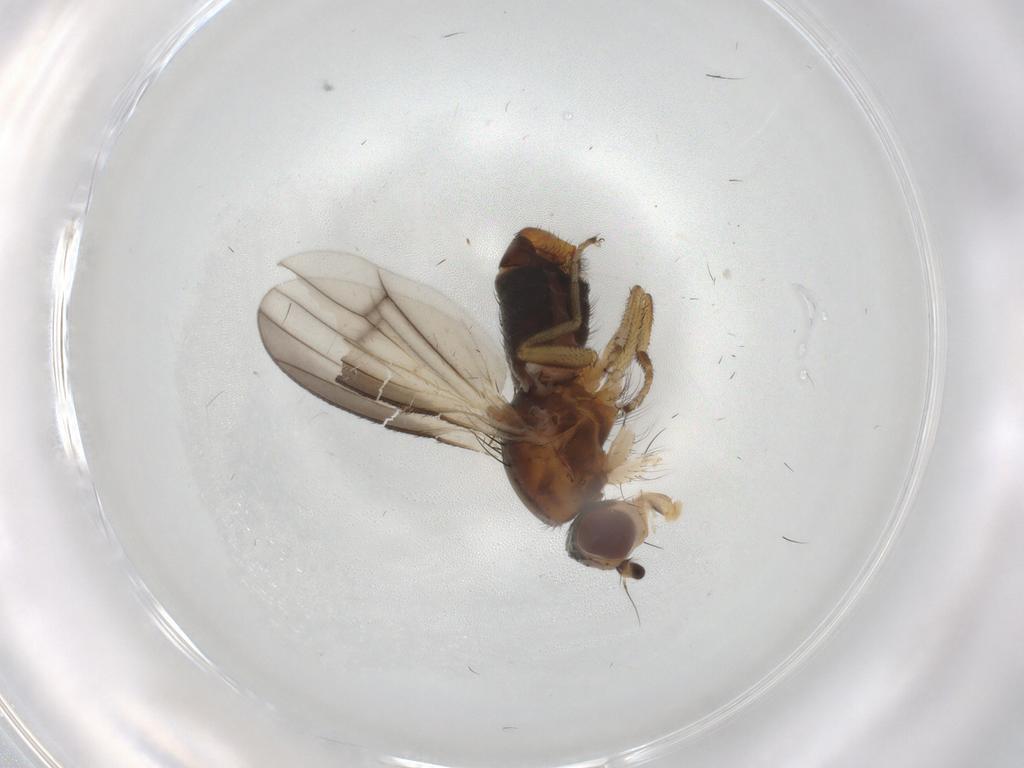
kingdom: Animalia
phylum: Arthropoda
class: Insecta
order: Diptera
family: Heleomyzidae
